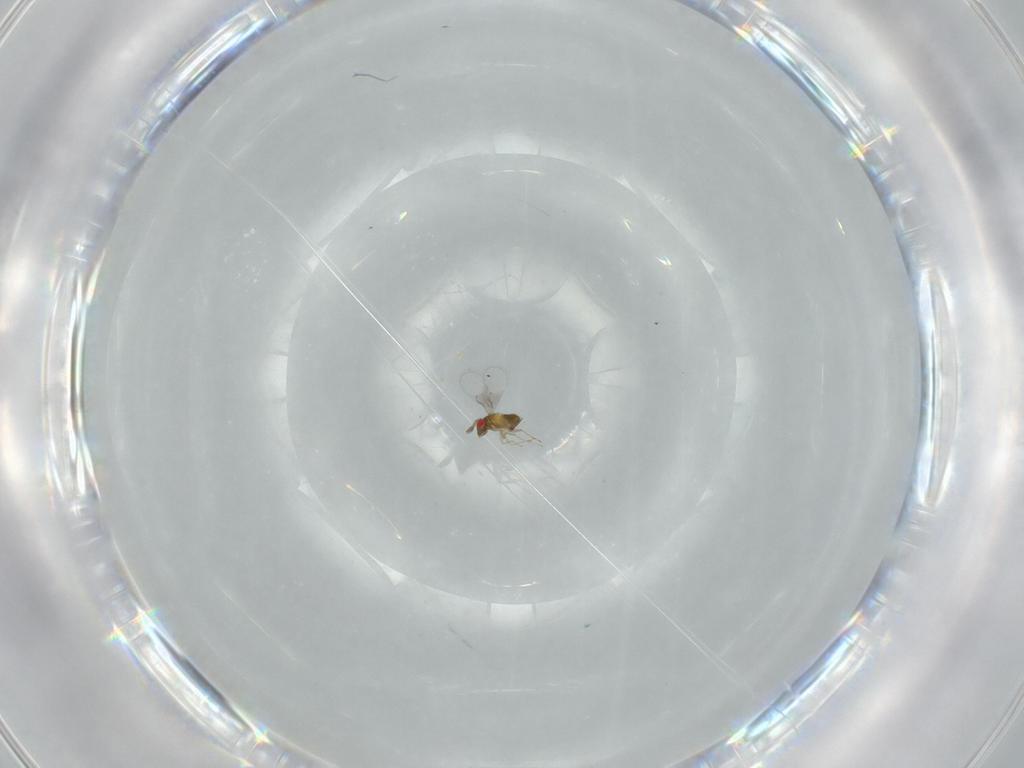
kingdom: Animalia
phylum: Arthropoda
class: Insecta
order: Hymenoptera
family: Trichogrammatidae
